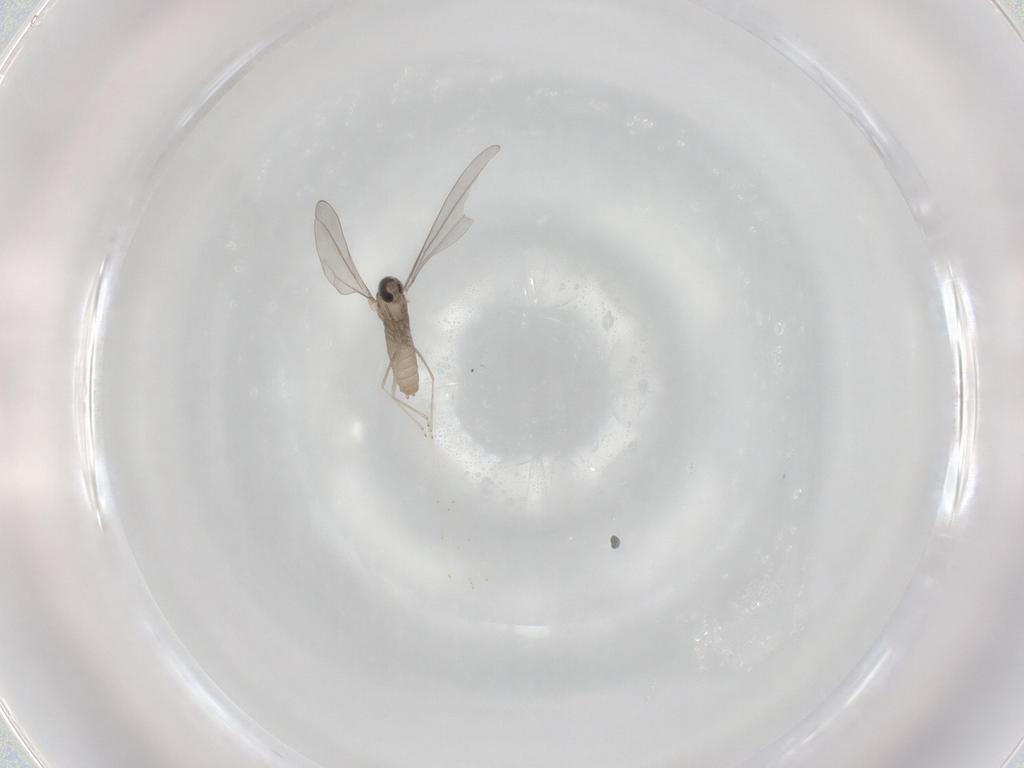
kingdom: Animalia
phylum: Arthropoda
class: Insecta
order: Diptera
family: Cecidomyiidae
